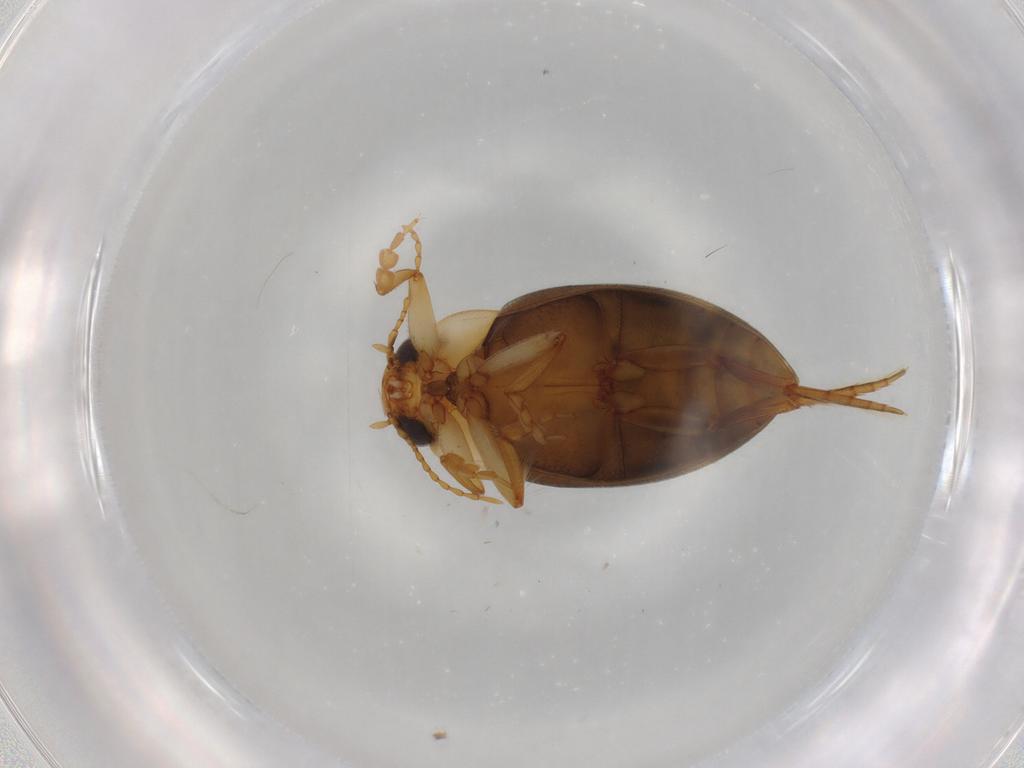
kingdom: Animalia
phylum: Arthropoda
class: Insecta
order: Coleoptera
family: Dytiscidae
